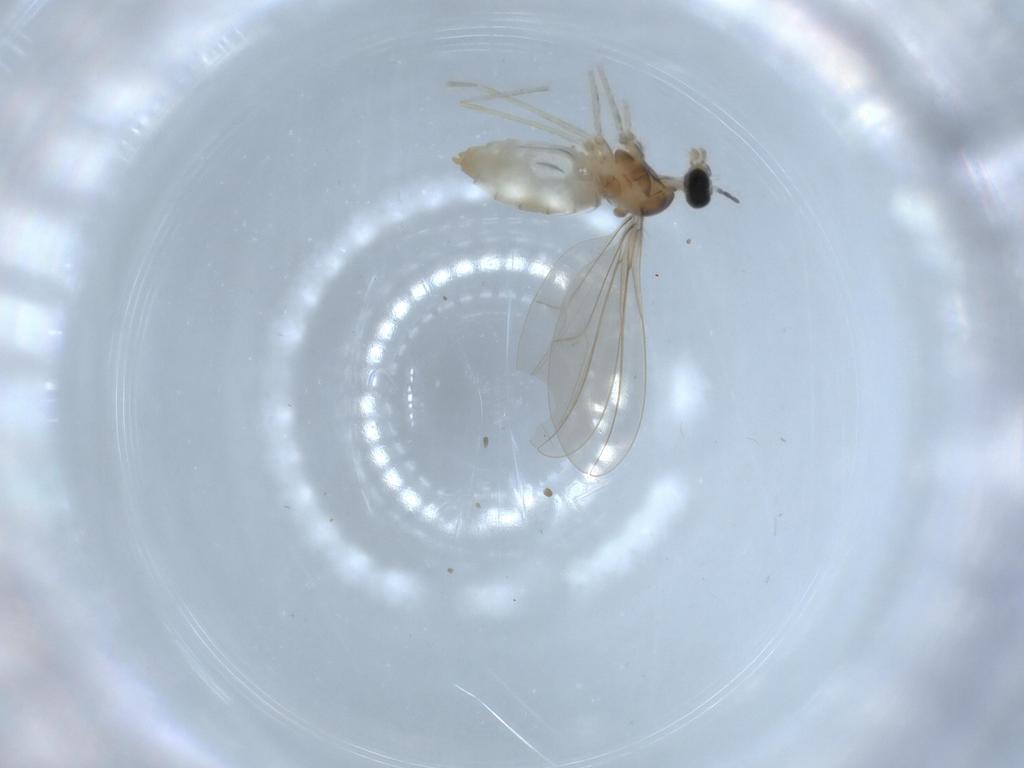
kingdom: Animalia
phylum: Arthropoda
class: Insecta
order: Diptera
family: Cecidomyiidae
